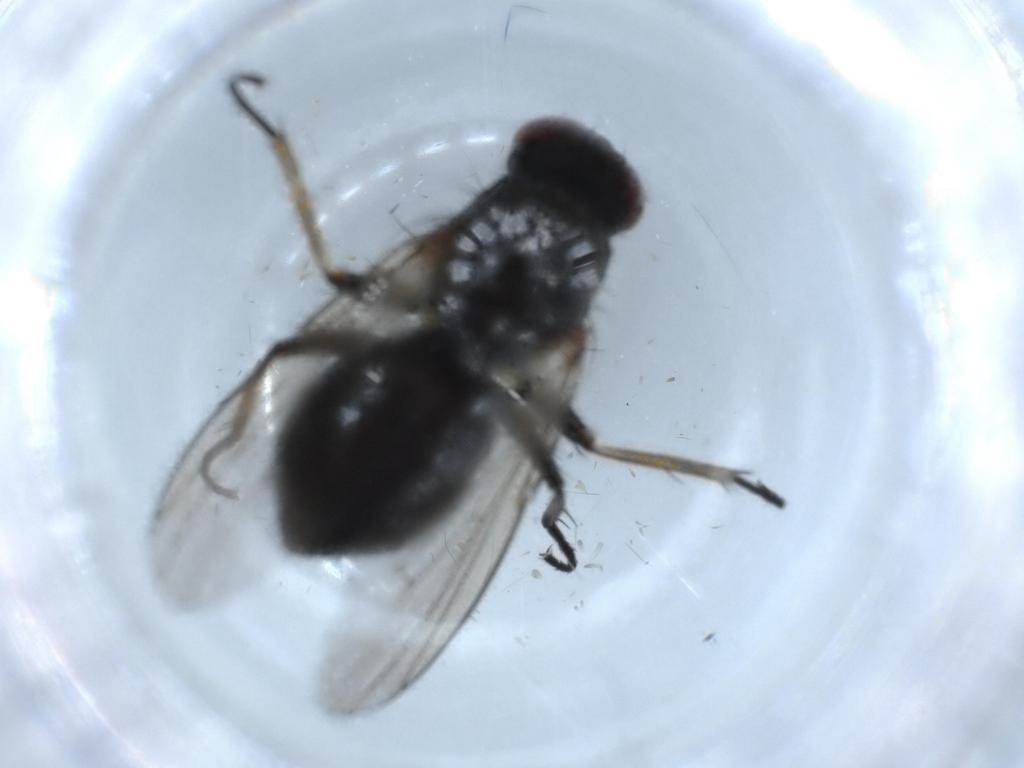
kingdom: Animalia
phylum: Arthropoda
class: Insecta
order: Diptera
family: Muscidae
